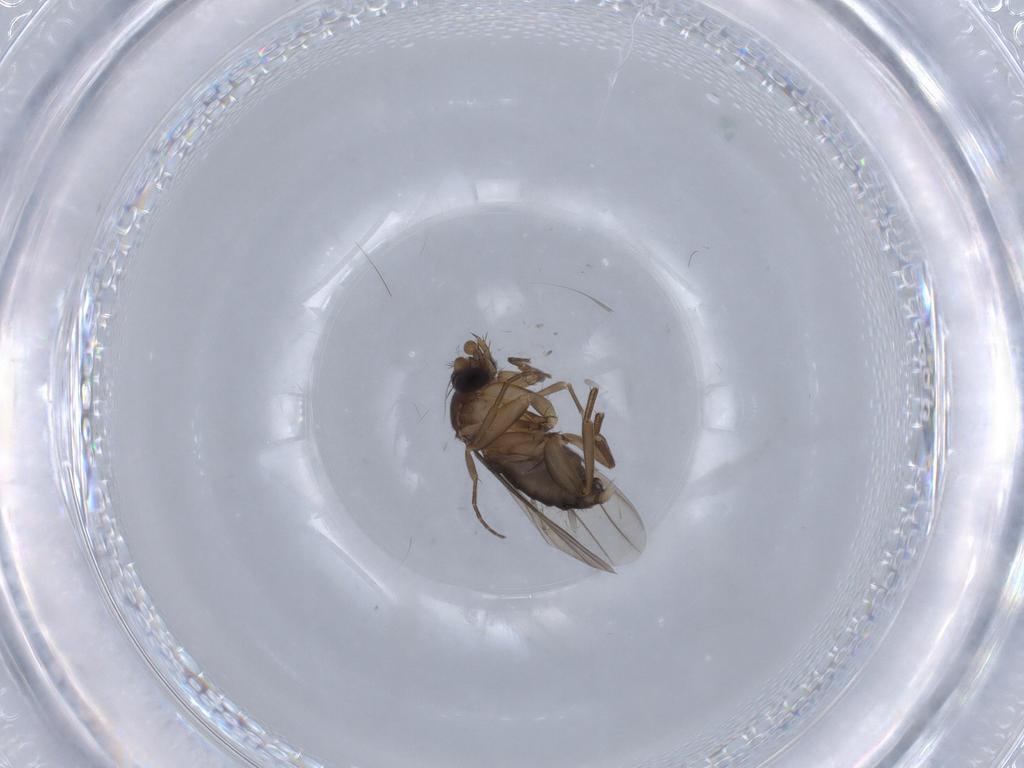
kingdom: Animalia
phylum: Arthropoda
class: Insecta
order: Diptera
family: Phoridae
